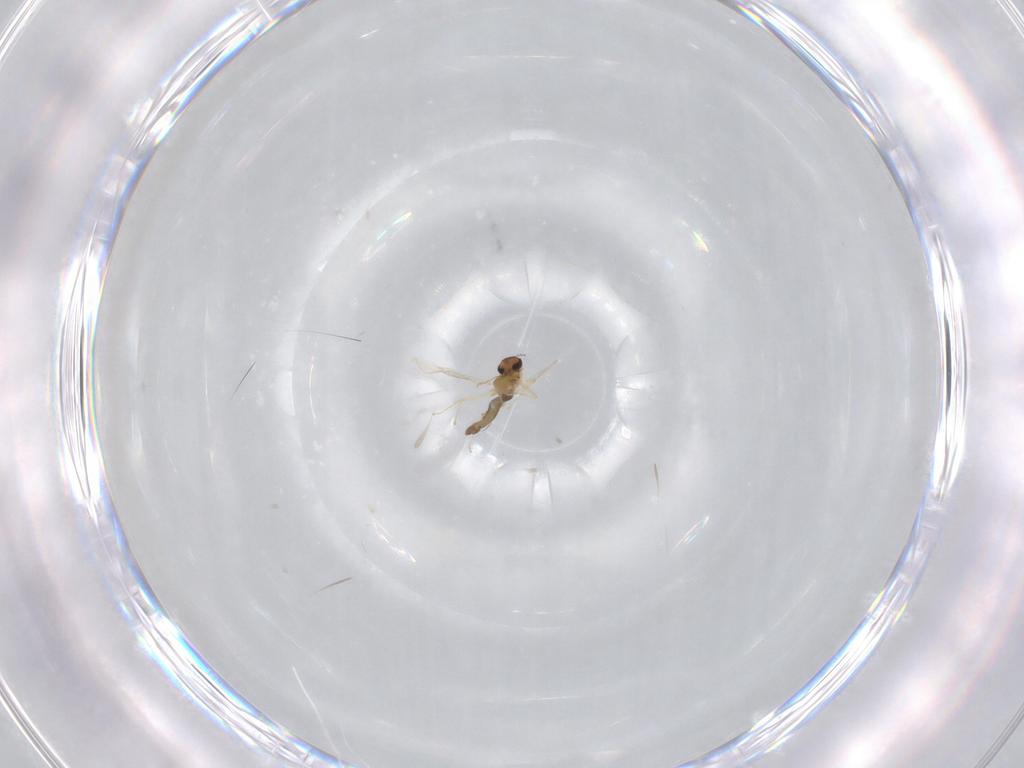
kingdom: Animalia
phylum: Arthropoda
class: Insecta
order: Diptera
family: Chironomidae
